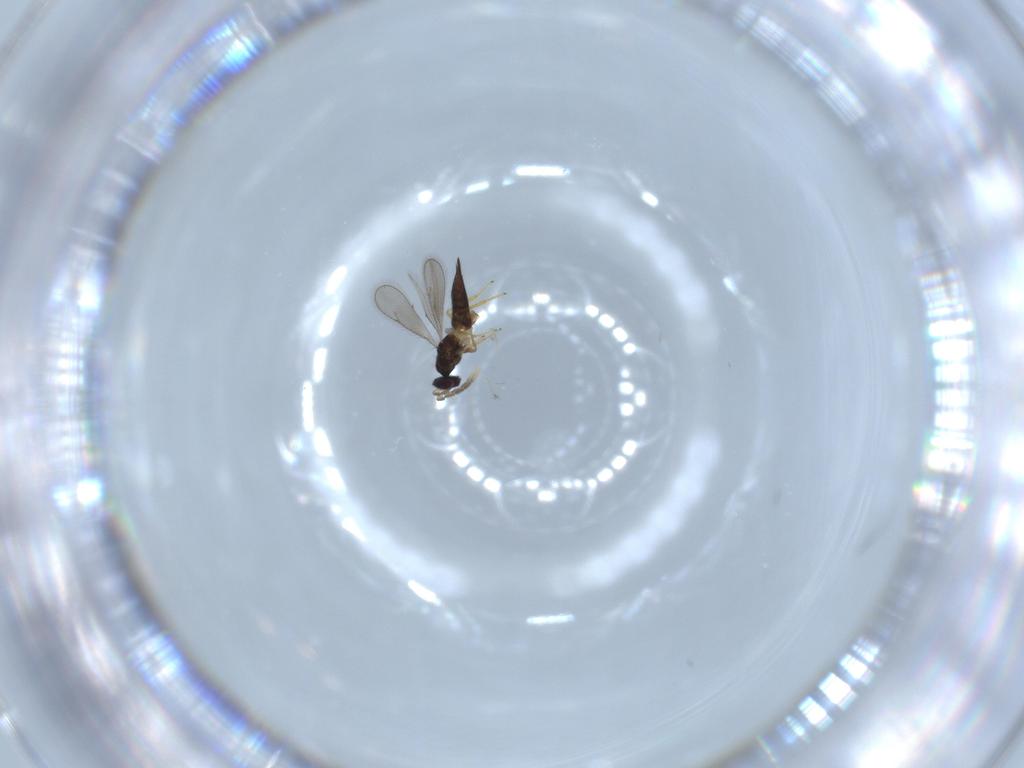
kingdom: Animalia
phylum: Arthropoda
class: Insecta
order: Hymenoptera
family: Eulophidae
